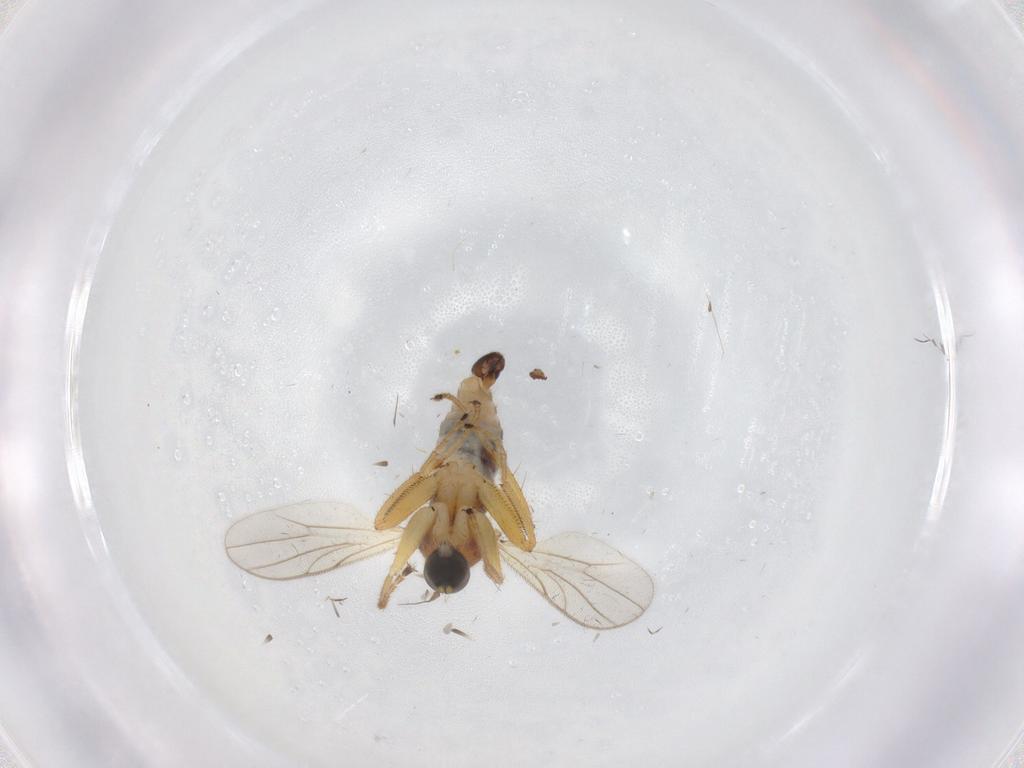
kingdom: Animalia
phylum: Arthropoda
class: Insecta
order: Diptera
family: Hybotidae
